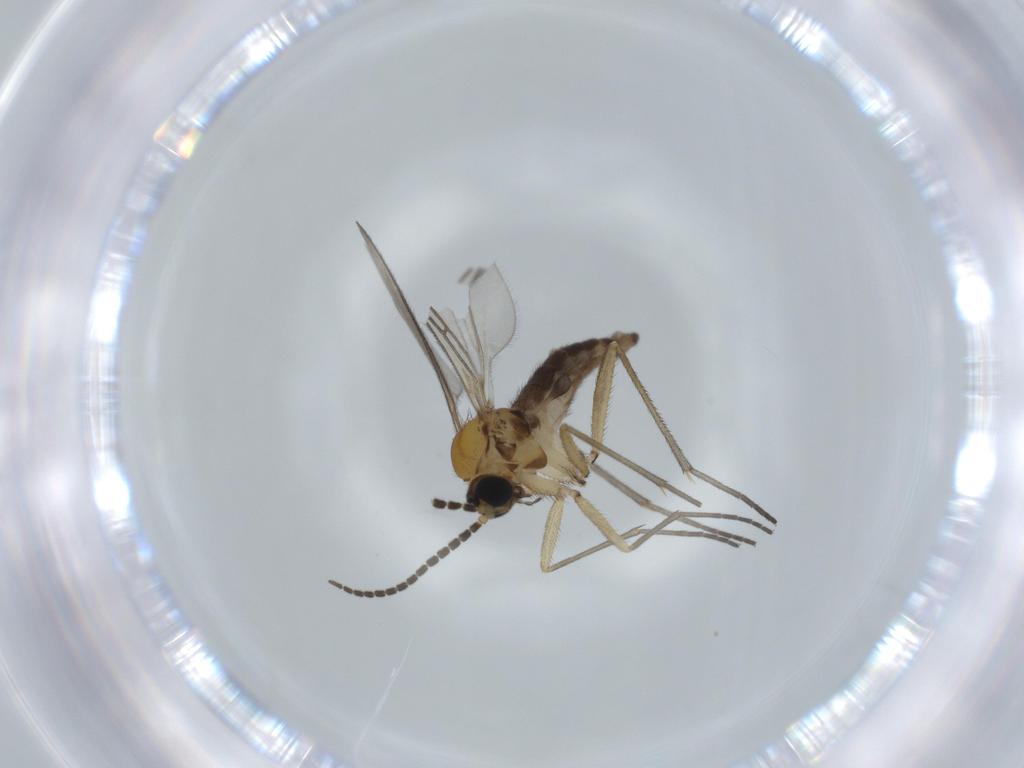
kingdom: Animalia
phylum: Arthropoda
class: Insecta
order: Diptera
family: Sciaridae
